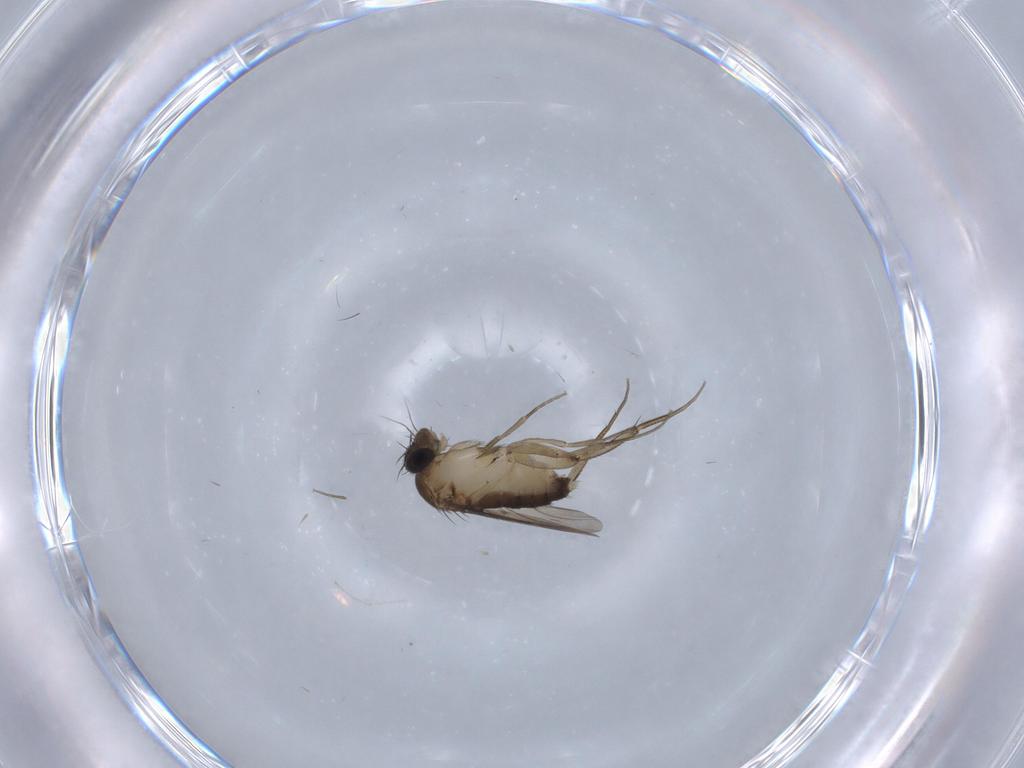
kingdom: Animalia
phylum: Arthropoda
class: Insecta
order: Diptera
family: Phoridae
